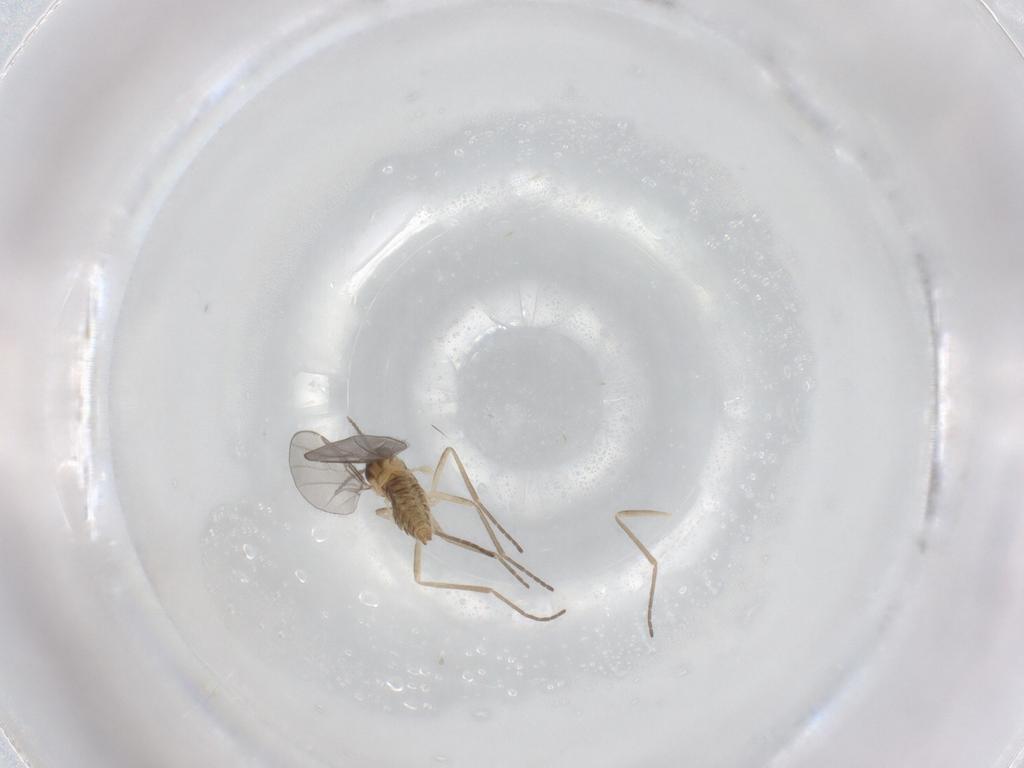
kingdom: Animalia
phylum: Arthropoda
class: Insecta
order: Diptera
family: Cecidomyiidae
